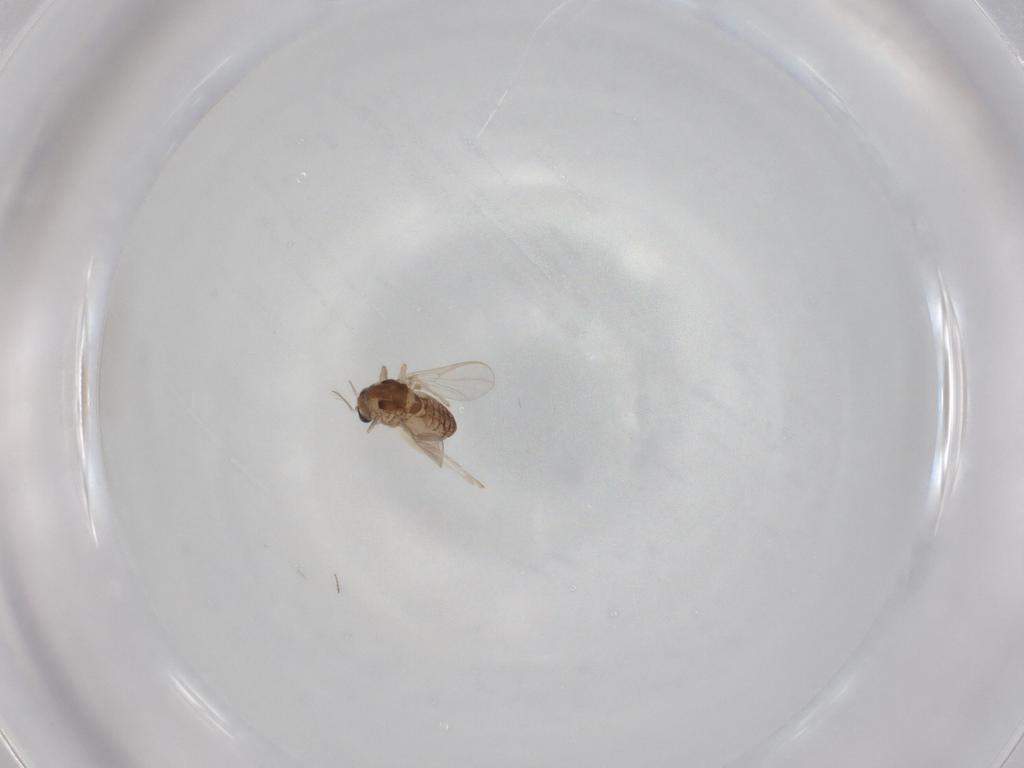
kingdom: Animalia
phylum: Arthropoda
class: Insecta
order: Diptera
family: Chironomidae
